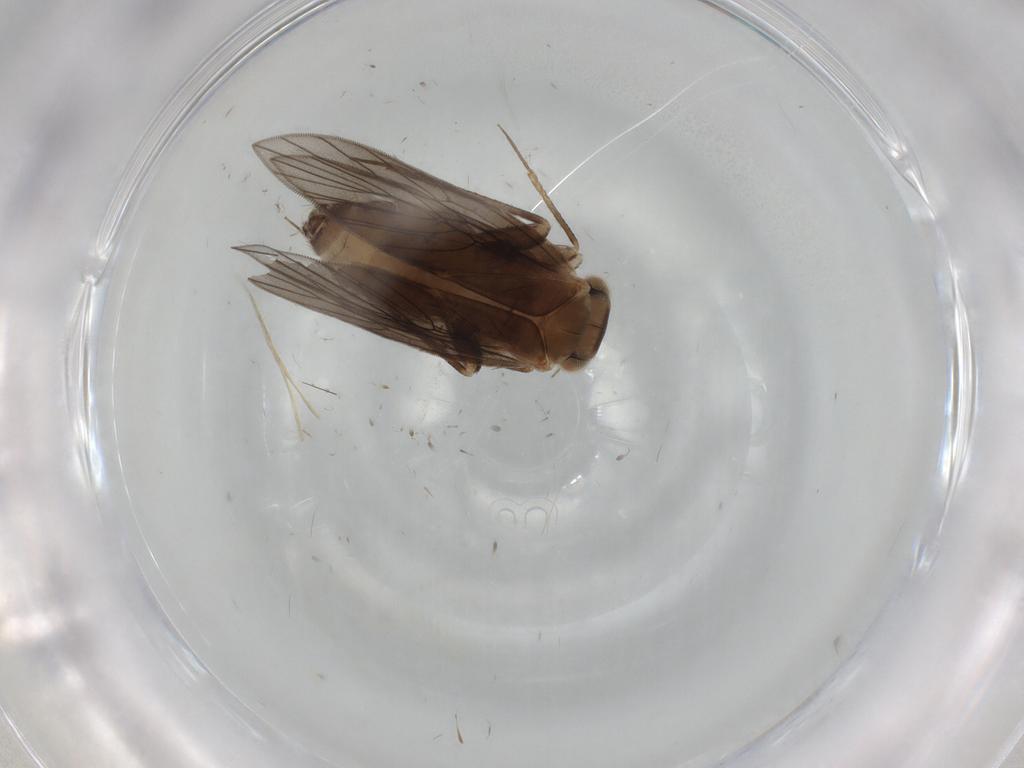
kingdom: Animalia
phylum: Arthropoda
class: Insecta
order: Psocodea
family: Lepidopsocidae
